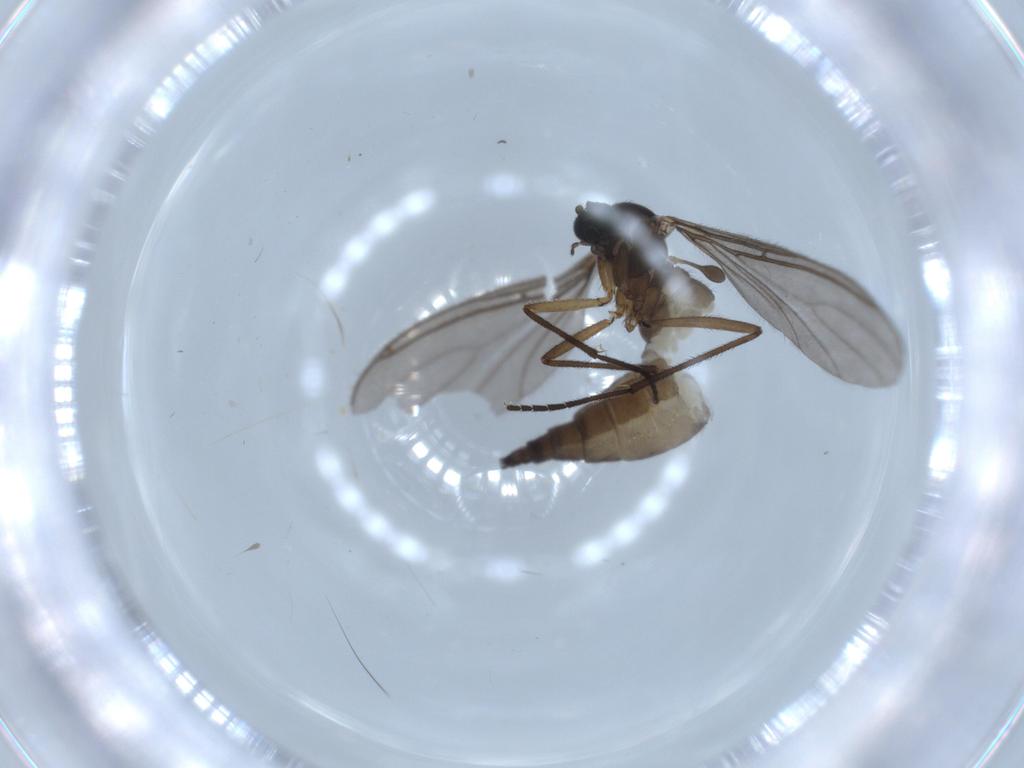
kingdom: Animalia
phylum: Arthropoda
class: Insecta
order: Diptera
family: Sciaridae
